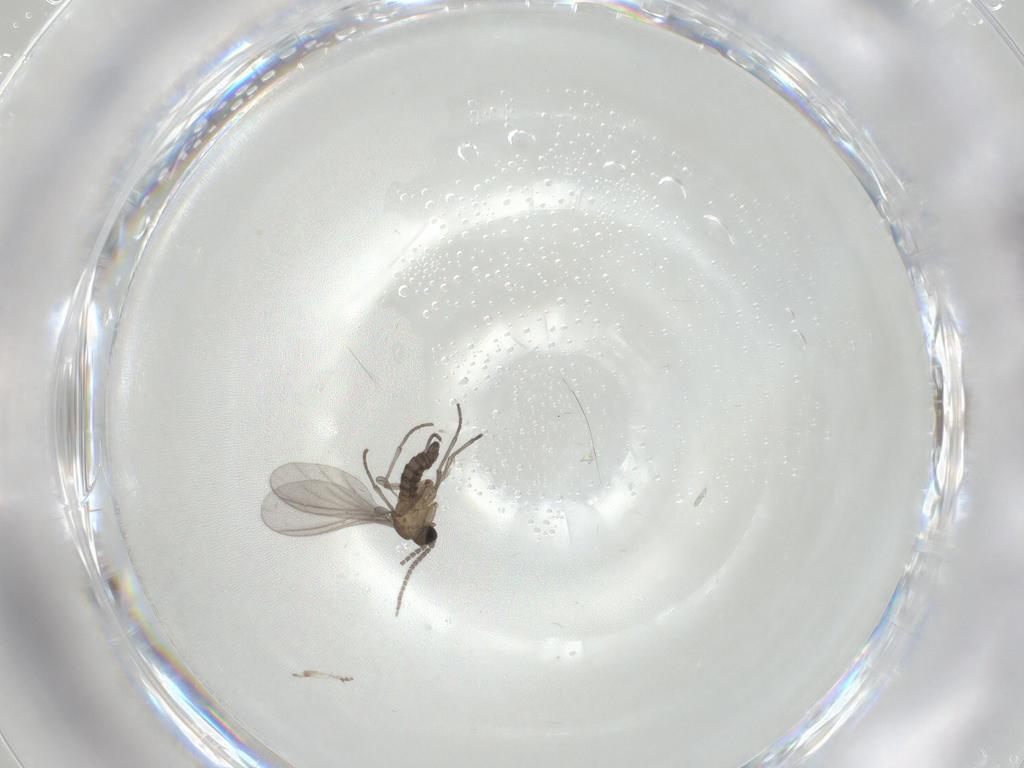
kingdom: Animalia
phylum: Arthropoda
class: Insecta
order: Diptera
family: Sciaridae
